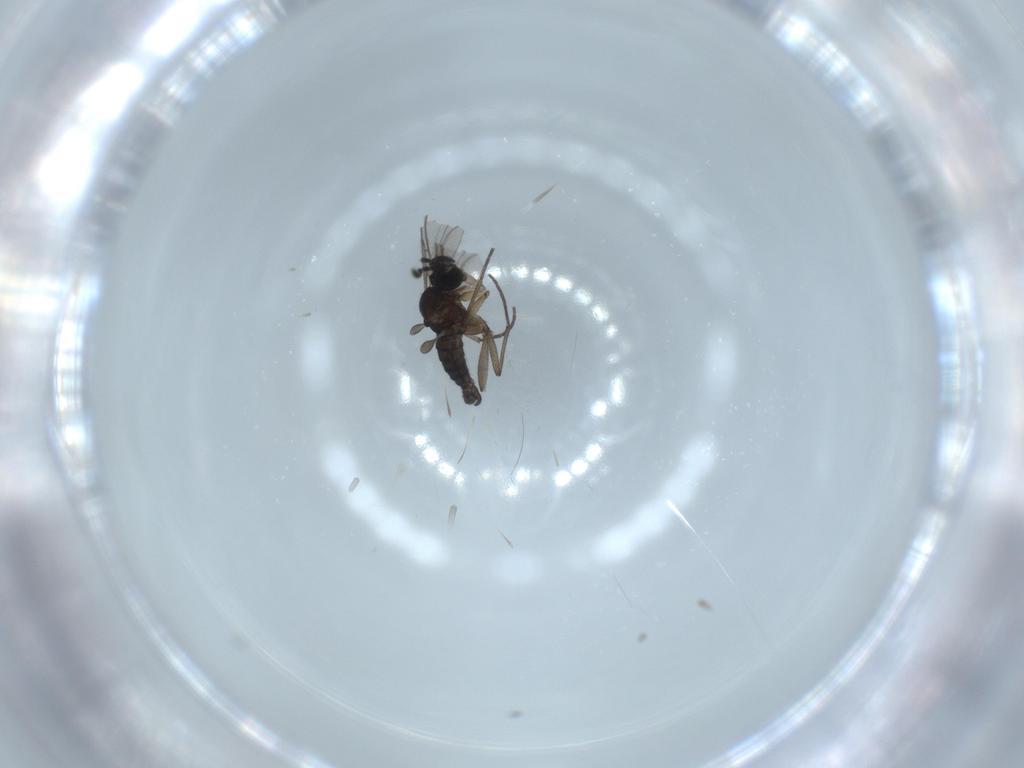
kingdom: Animalia
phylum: Arthropoda
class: Insecta
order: Diptera
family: Sciaridae
